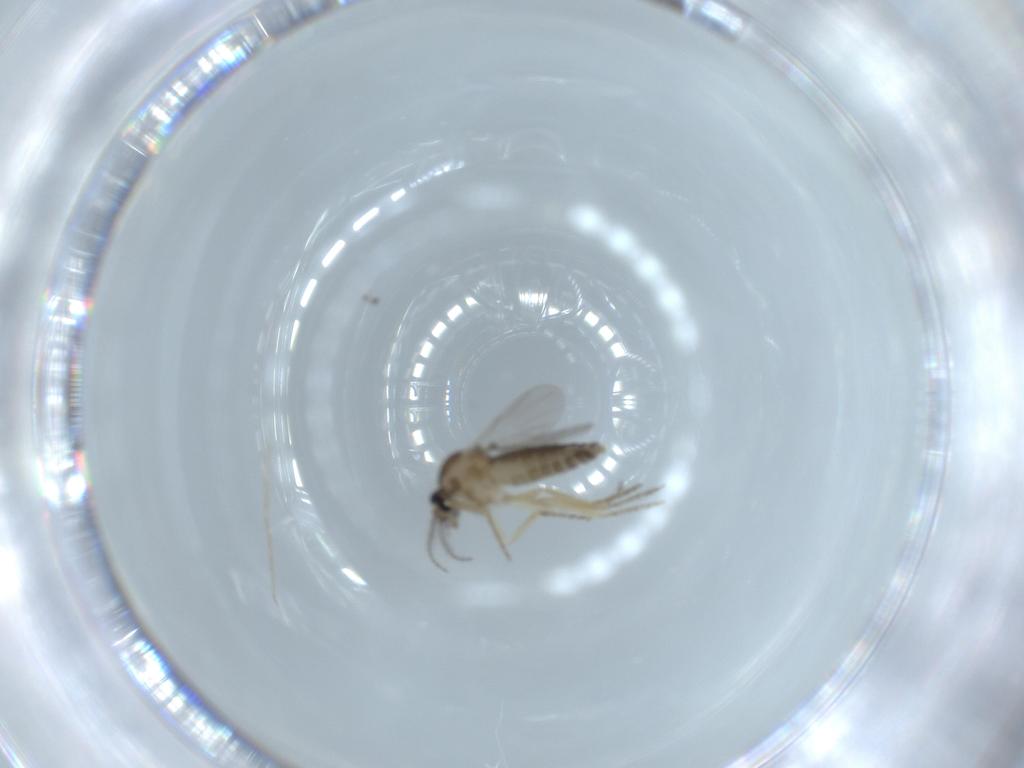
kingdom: Animalia
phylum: Arthropoda
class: Insecta
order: Diptera
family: Ceratopogonidae
